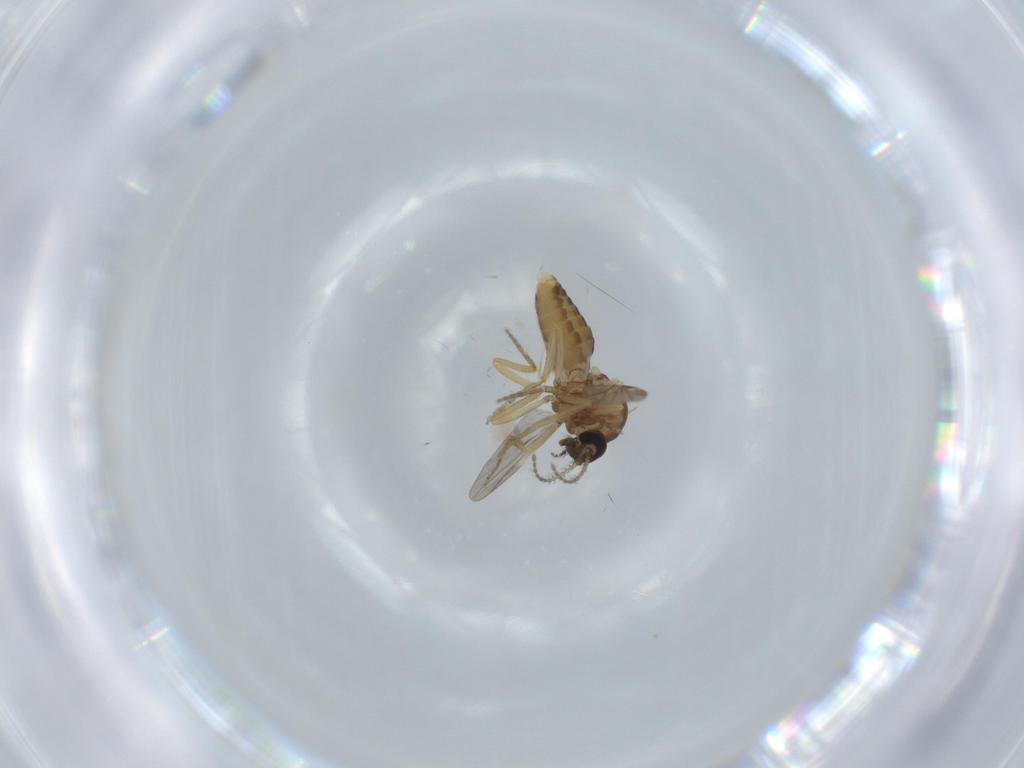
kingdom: Animalia
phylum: Arthropoda
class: Insecta
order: Diptera
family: Ceratopogonidae
